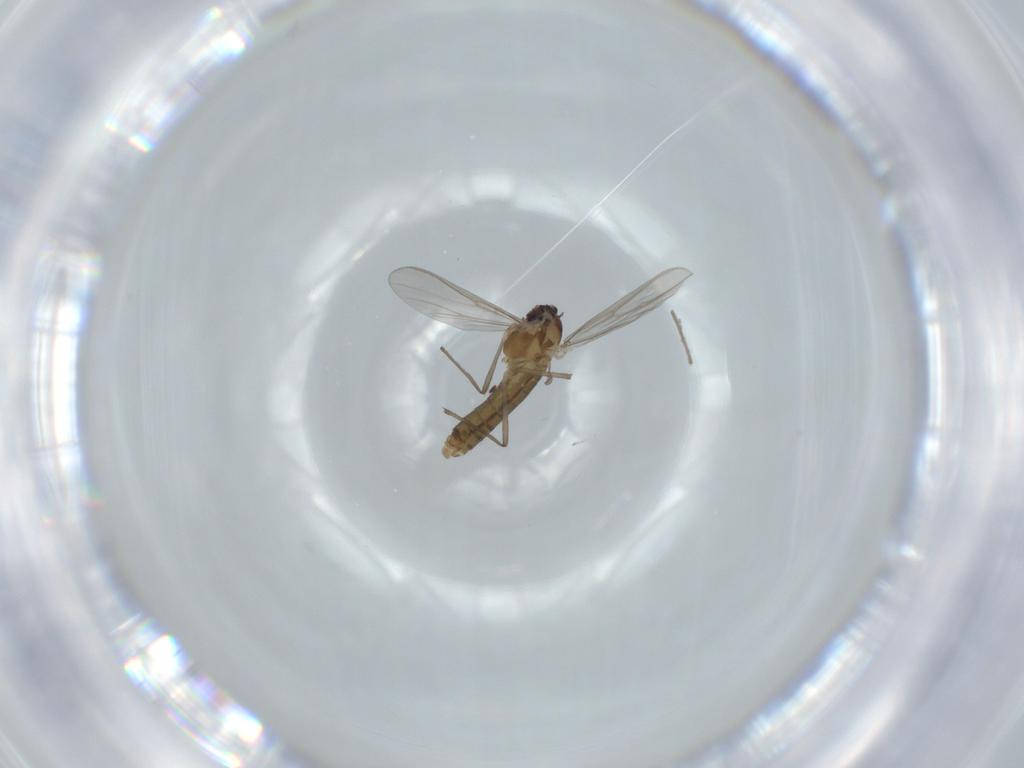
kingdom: Animalia
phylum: Arthropoda
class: Insecta
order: Diptera
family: Cecidomyiidae
